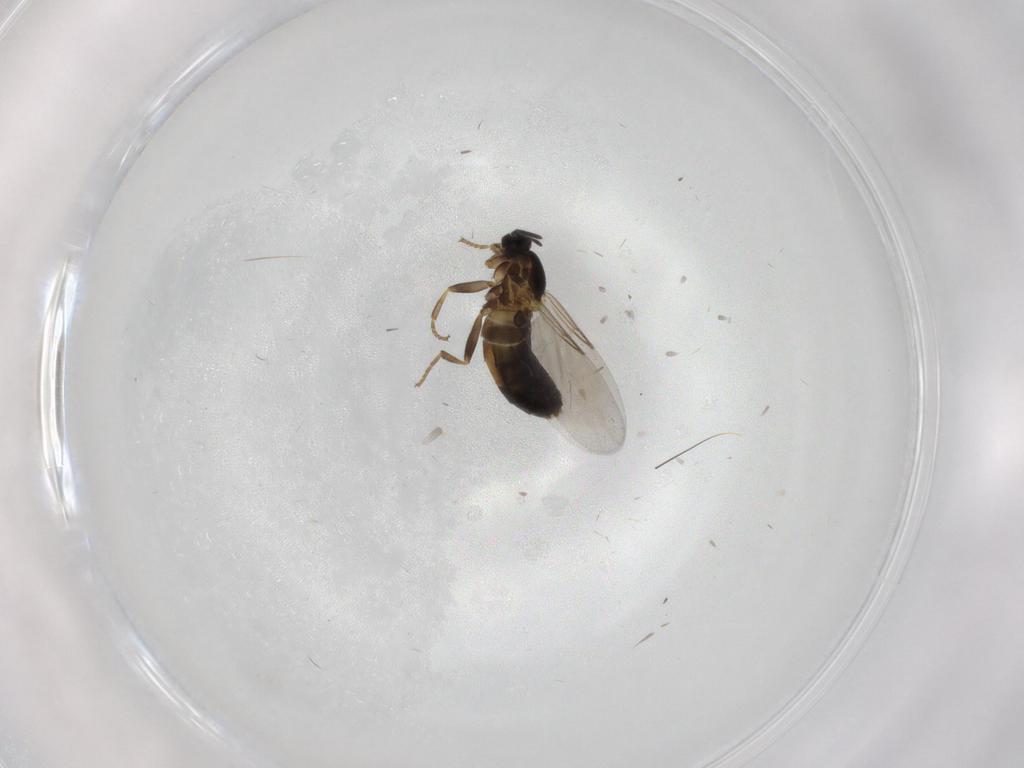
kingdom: Animalia
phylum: Arthropoda
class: Insecta
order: Diptera
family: Scatopsidae
